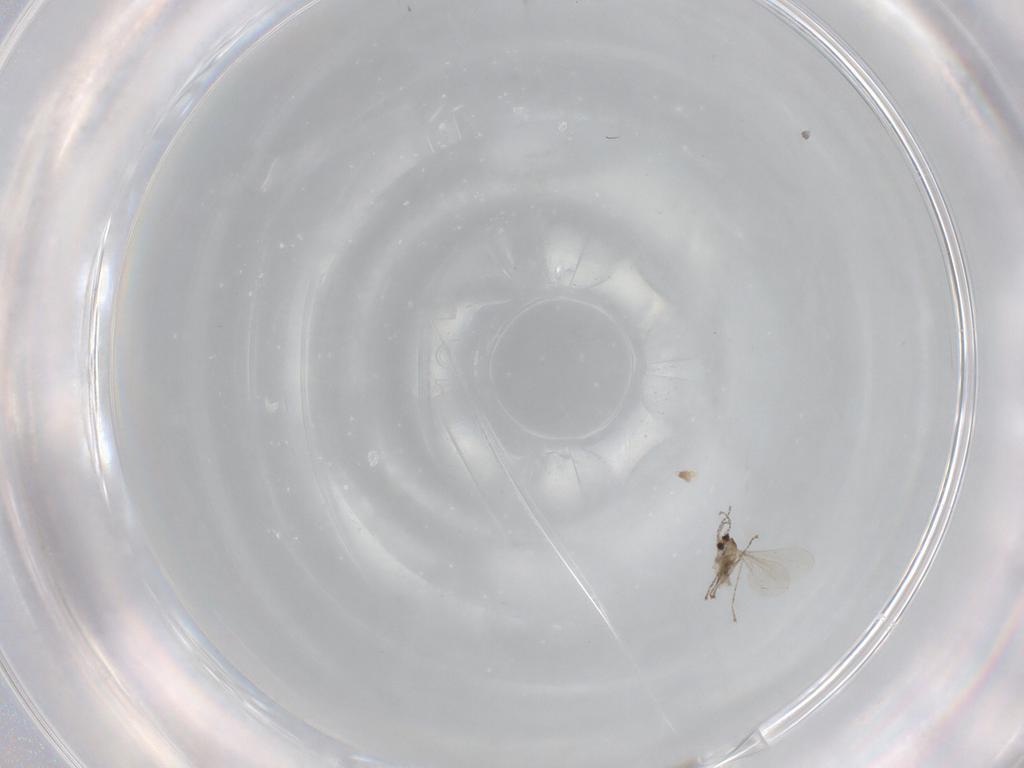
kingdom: Animalia
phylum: Arthropoda
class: Insecta
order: Diptera
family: Cecidomyiidae
